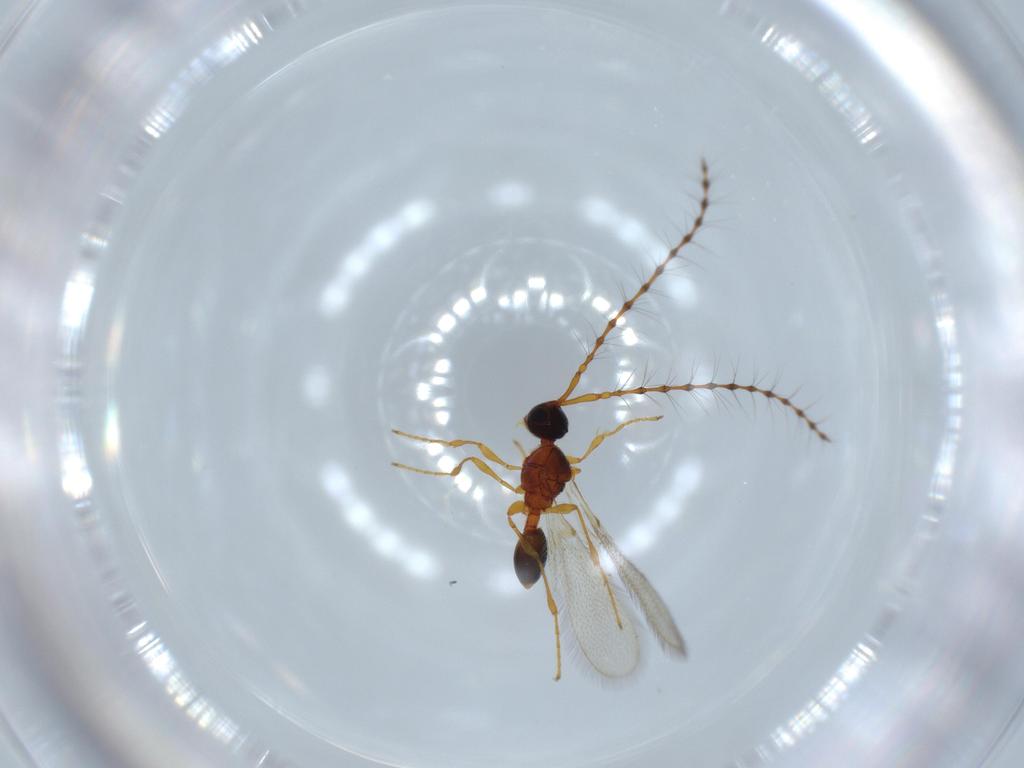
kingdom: Animalia
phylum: Arthropoda
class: Insecta
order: Hymenoptera
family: Diapriidae
